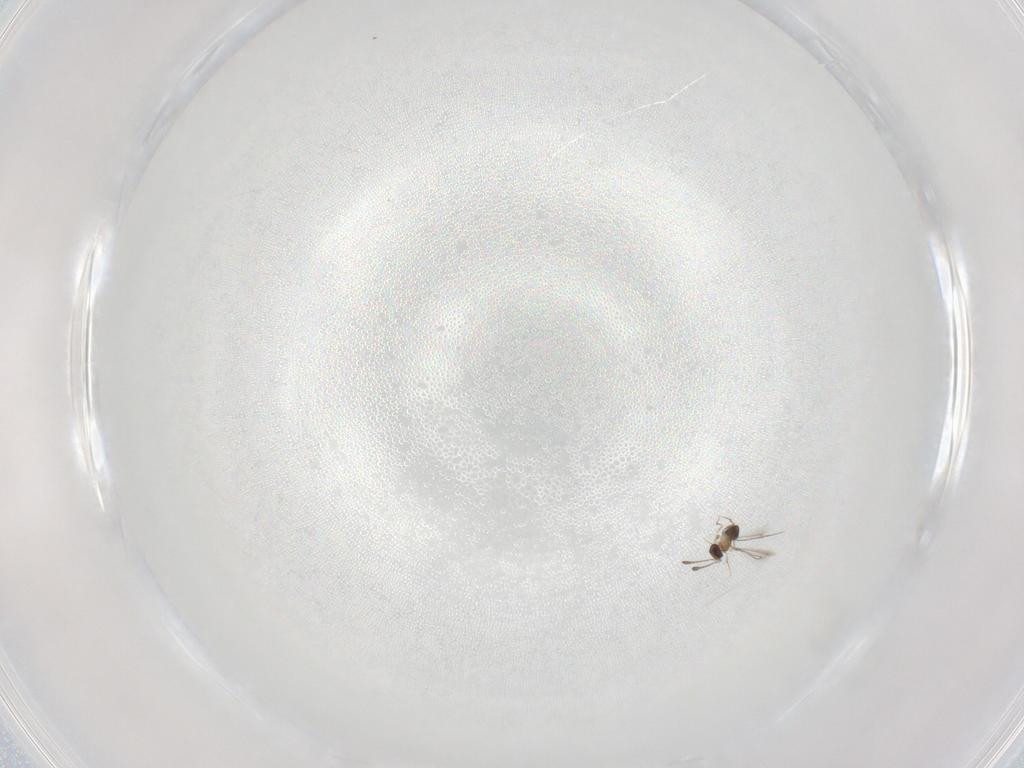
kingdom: Animalia
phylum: Arthropoda
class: Insecta
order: Hymenoptera
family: Mymaridae
